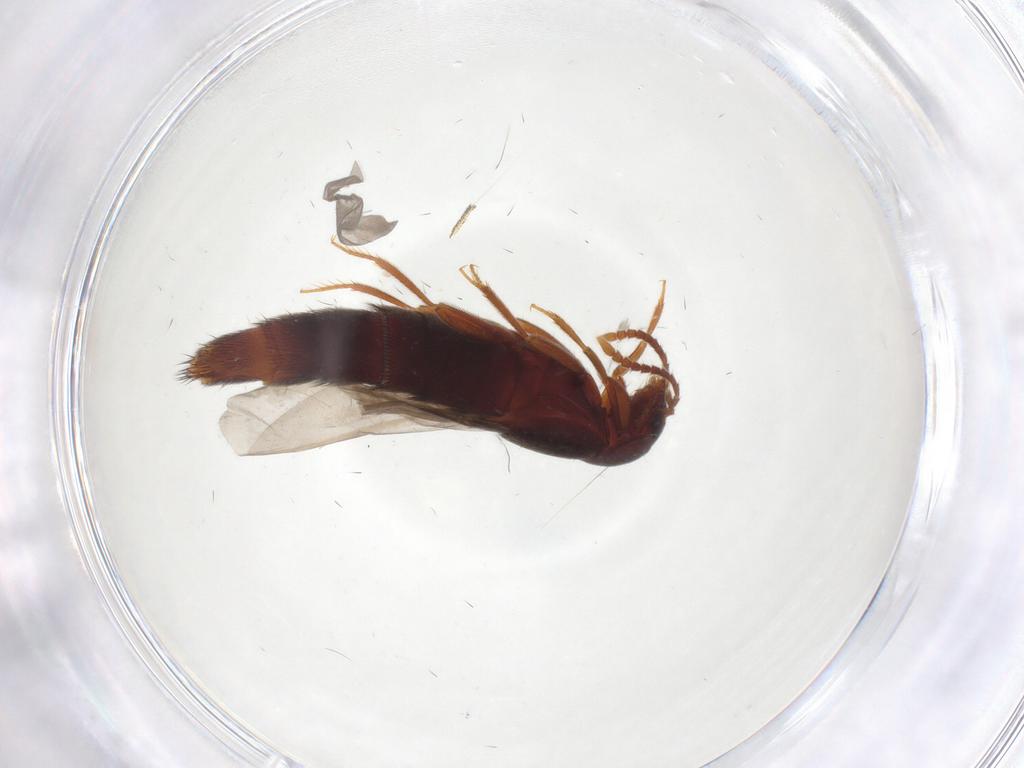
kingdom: Animalia
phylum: Arthropoda
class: Insecta
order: Coleoptera
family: Staphylinidae
